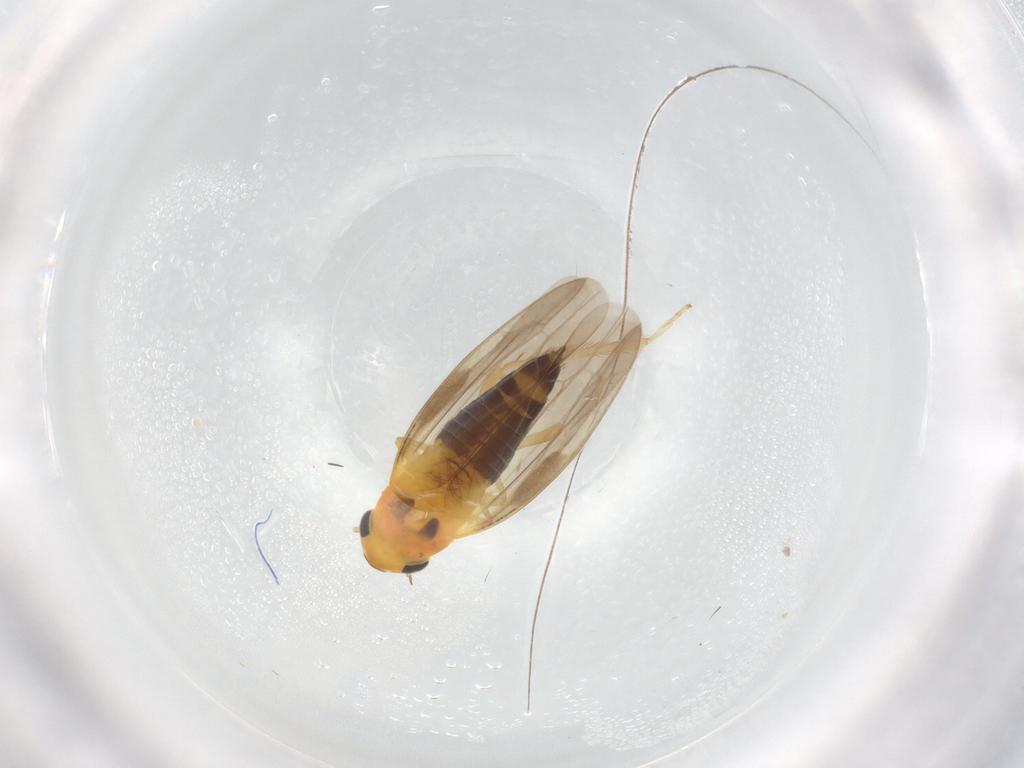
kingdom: Animalia
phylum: Arthropoda
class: Insecta
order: Hemiptera
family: Cicadellidae
